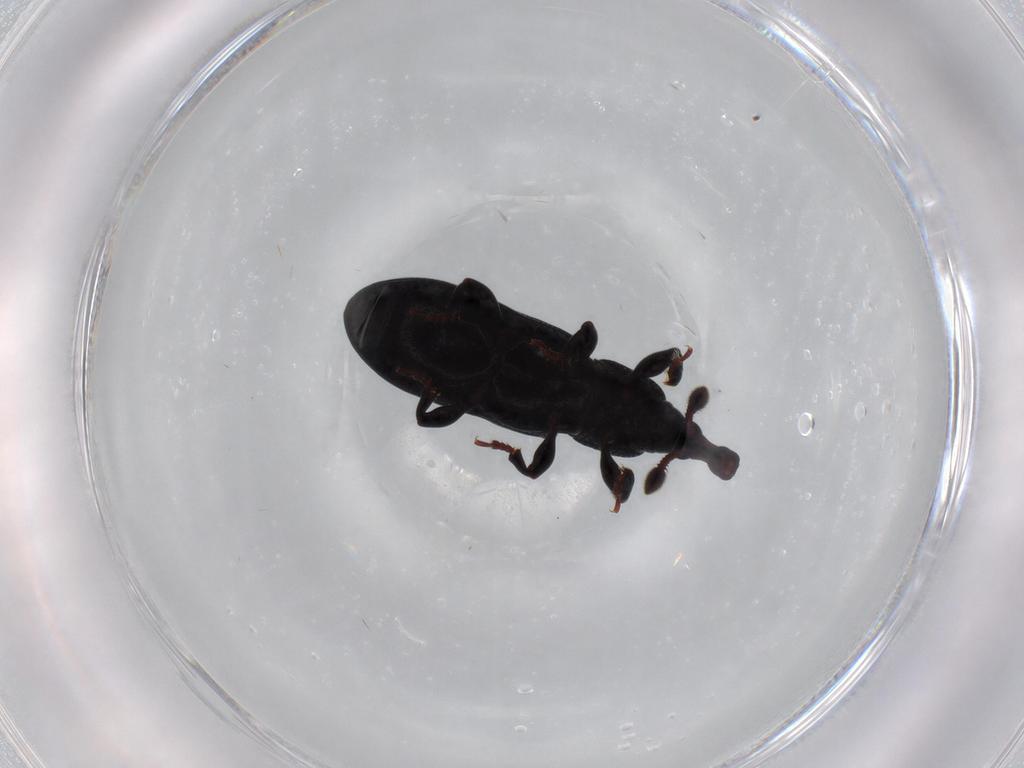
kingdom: Animalia
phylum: Arthropoda
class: Insecta
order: Coleoptera
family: Curculionidae
